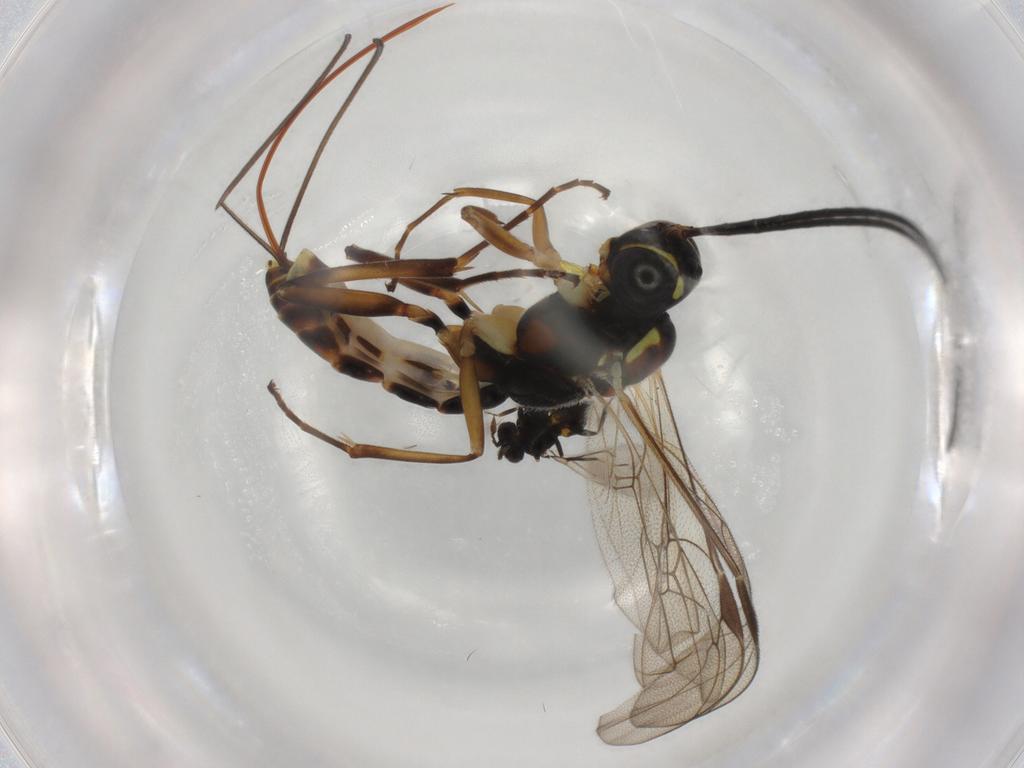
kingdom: Animalia
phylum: Arthropoda
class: Insecta
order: Hymenoptera
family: Ichneumonidae
